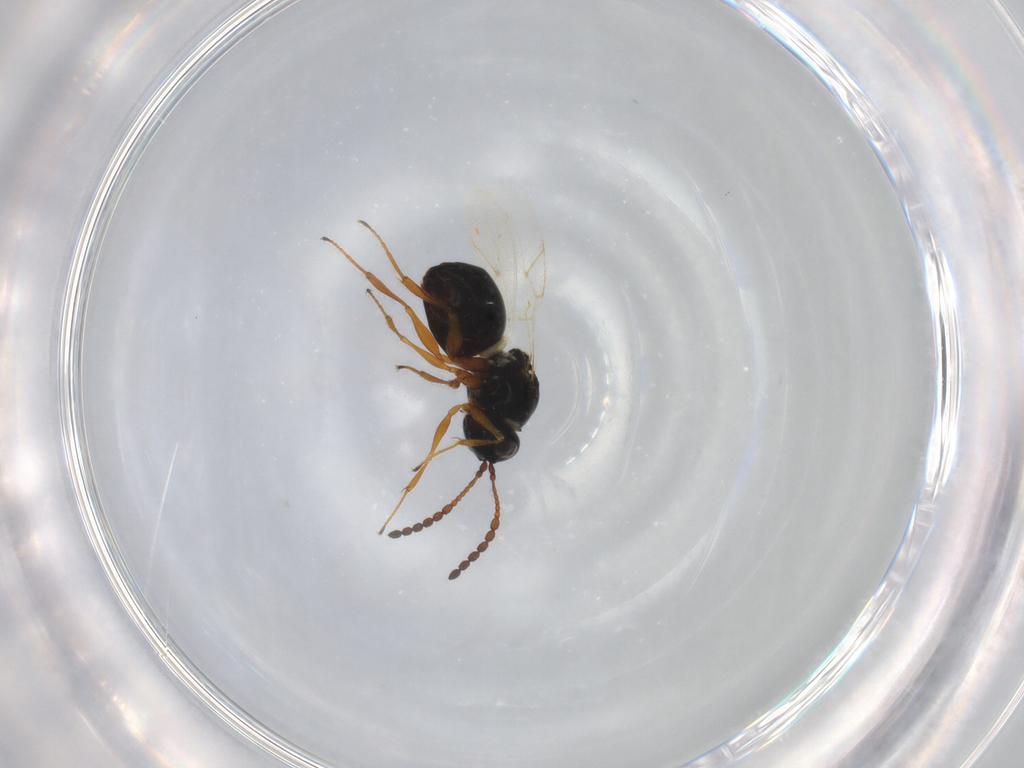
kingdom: Animalia
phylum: Arthropoda
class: Insecta
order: Hymenoptera
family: Figitidae
